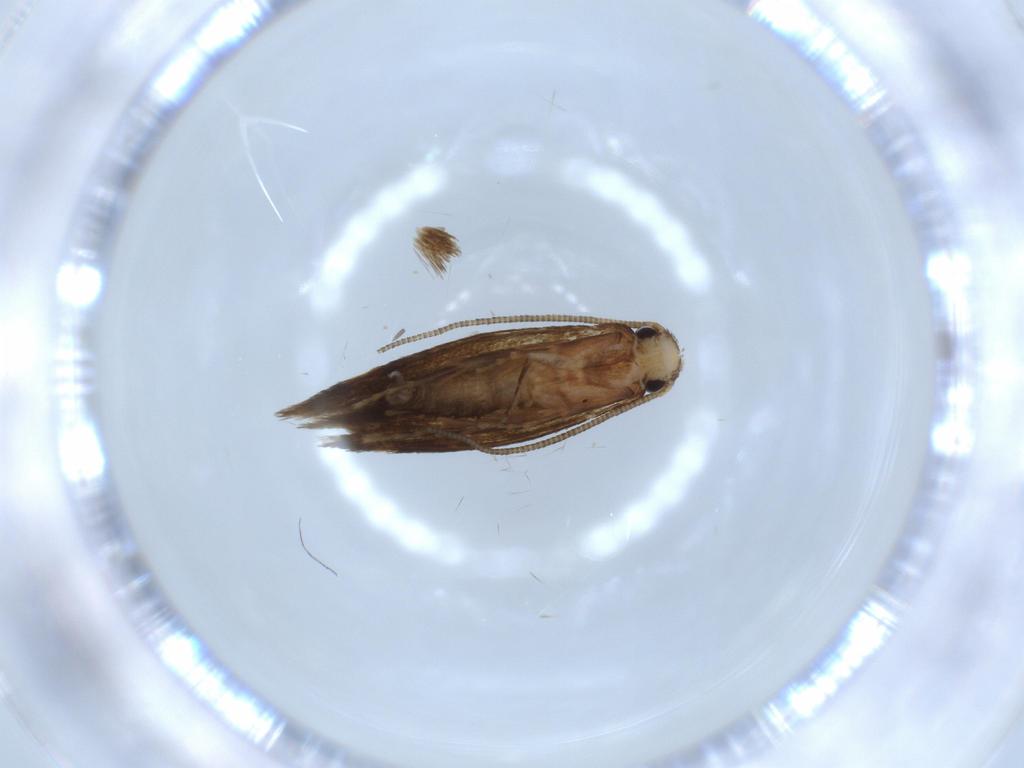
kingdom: Animalia
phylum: Arthropoda
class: Insecta
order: Lepidoptera
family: Tineidae
